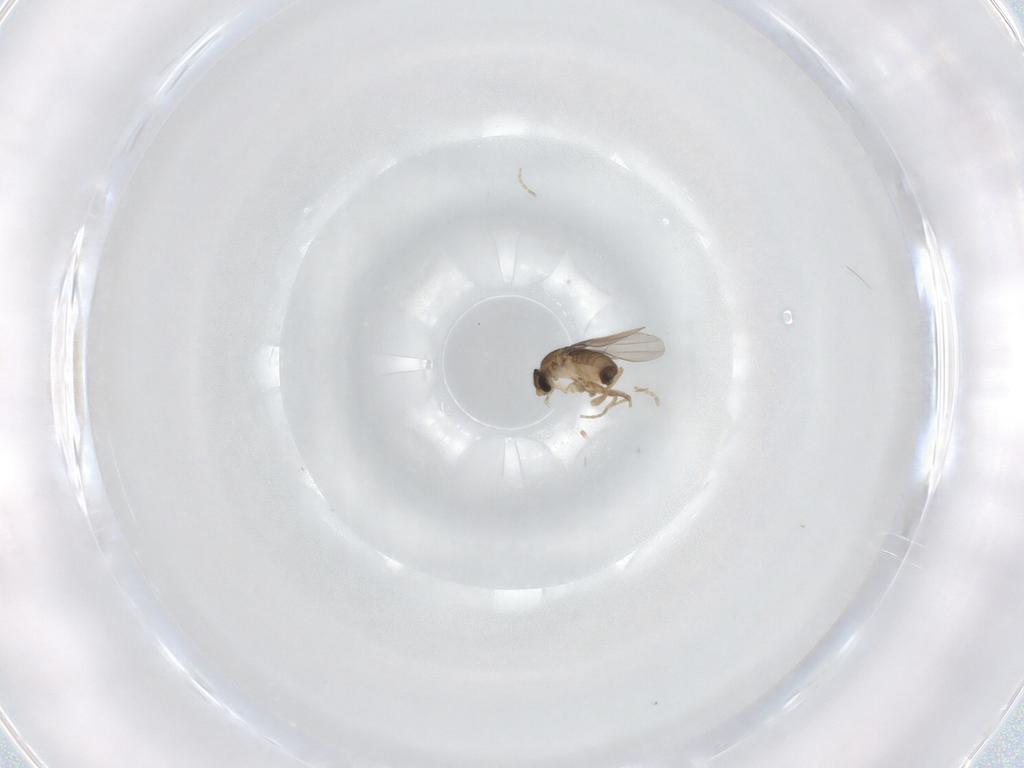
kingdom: Animalia
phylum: Arthropoda
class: Insecta
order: Diptera
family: Phoridae
